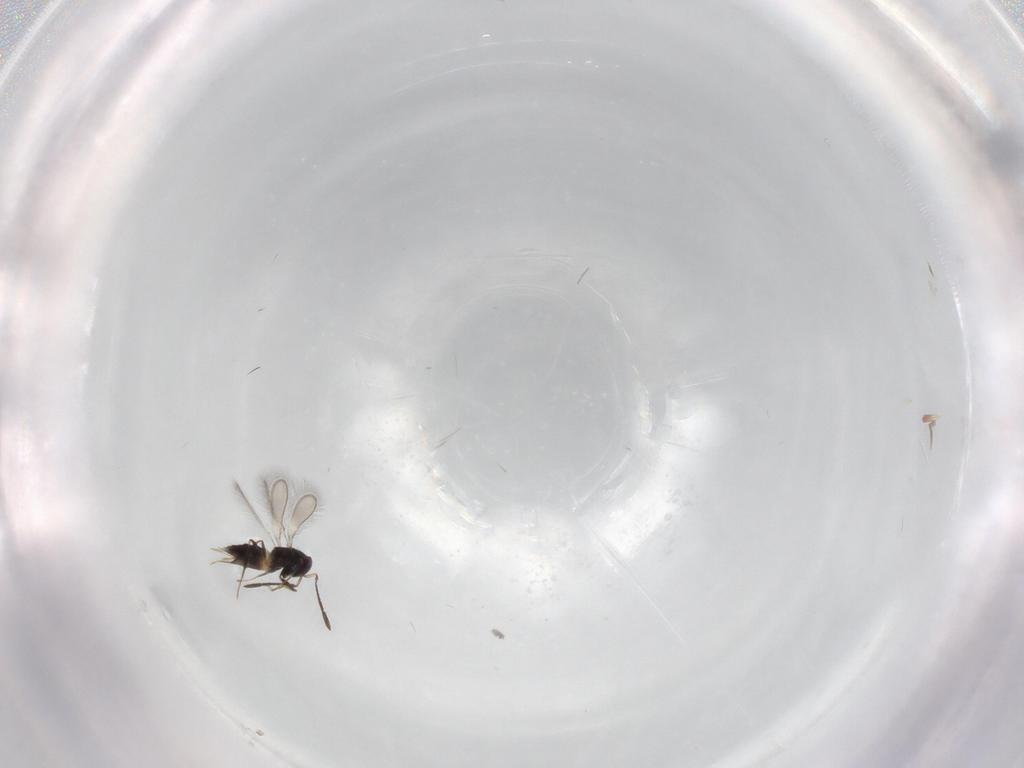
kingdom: Animalia
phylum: Arthropoda
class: Insecta
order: Hymenoptera
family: Mymaridae
